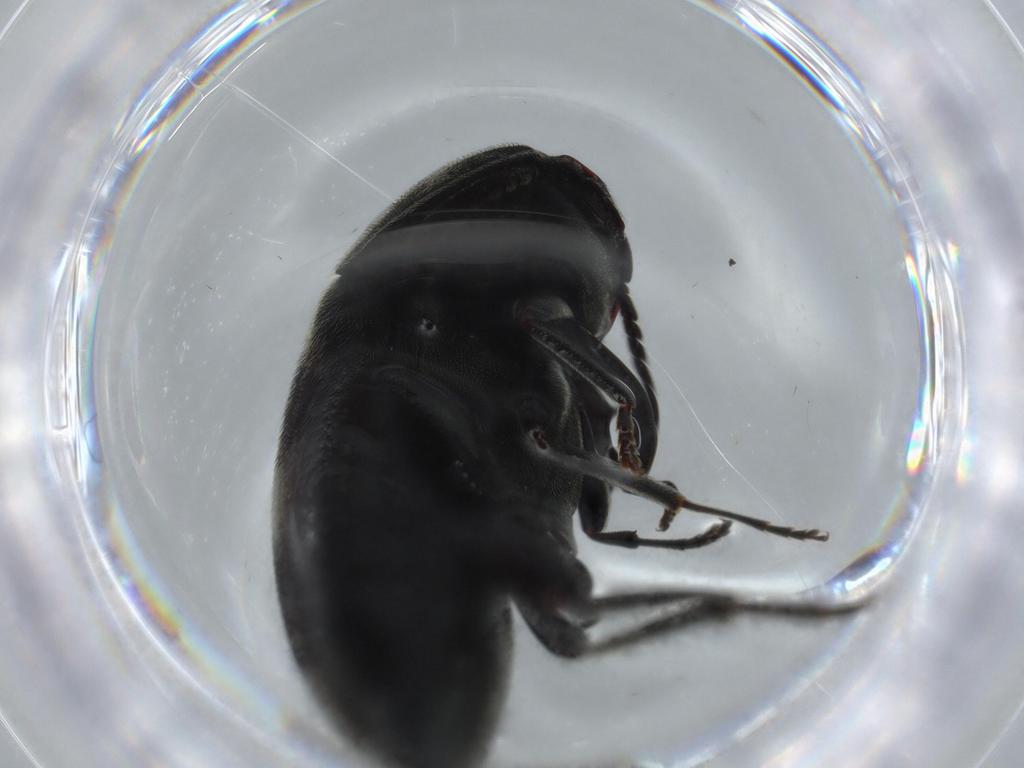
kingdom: Animalia
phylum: Arthropoda
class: Insecta
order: Coleoptera
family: Eucnemidae
